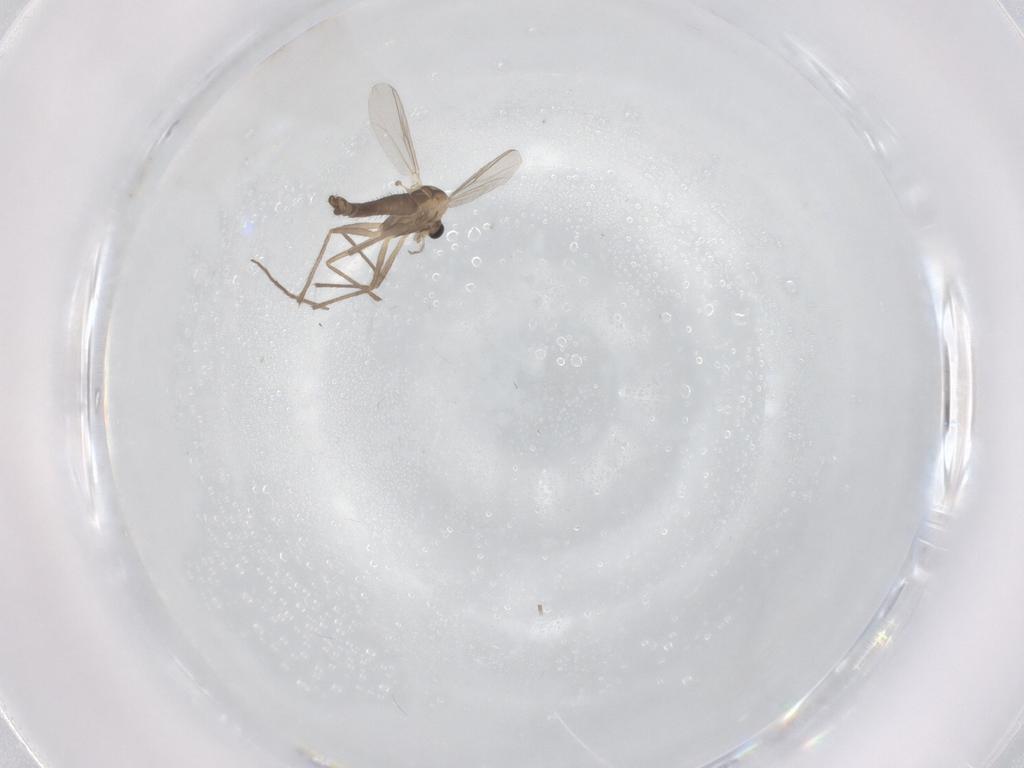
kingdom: Animalia
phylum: Arthropoda
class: Insecta
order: Diptera
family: Chironomidae
